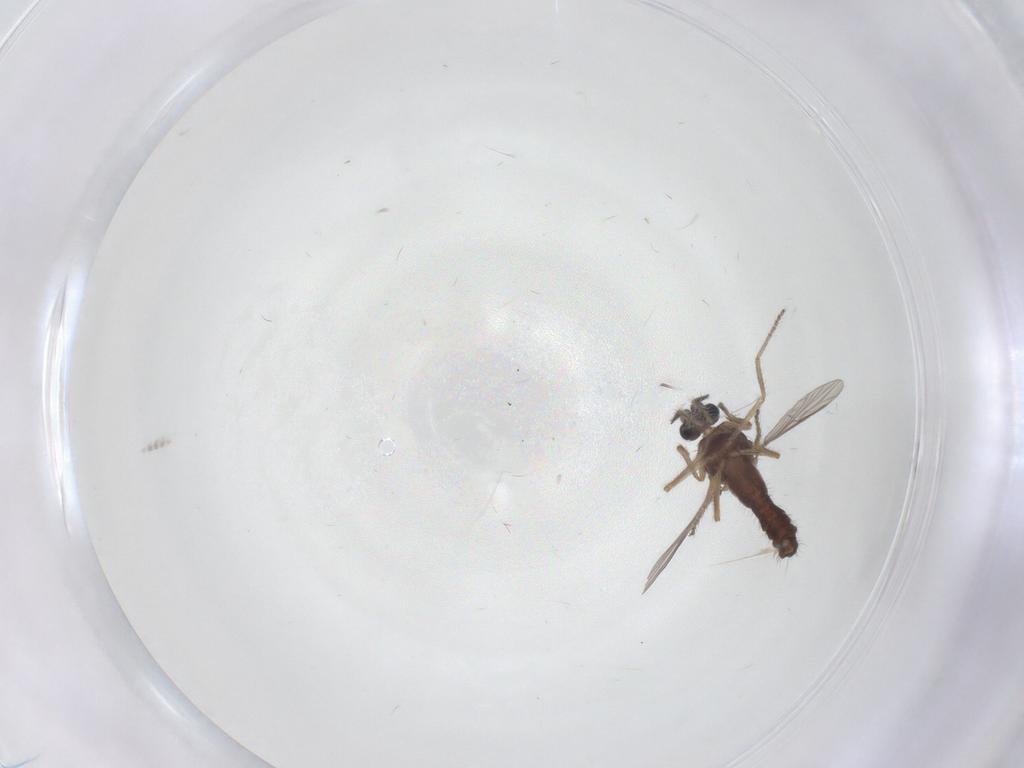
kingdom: Animalia
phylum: Arthropoda
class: Insecta
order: Diptera
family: Ceratopogonidae
